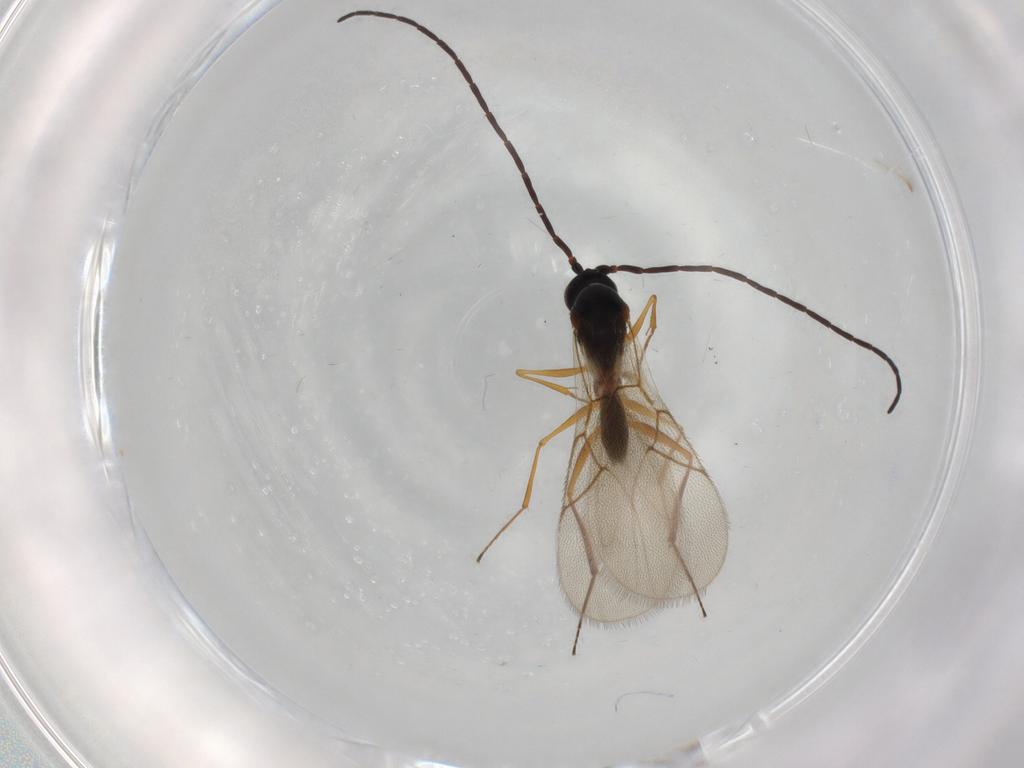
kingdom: Animalia
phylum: Arthropoda
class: Insecta
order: Hymenoptera
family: Figitidae
